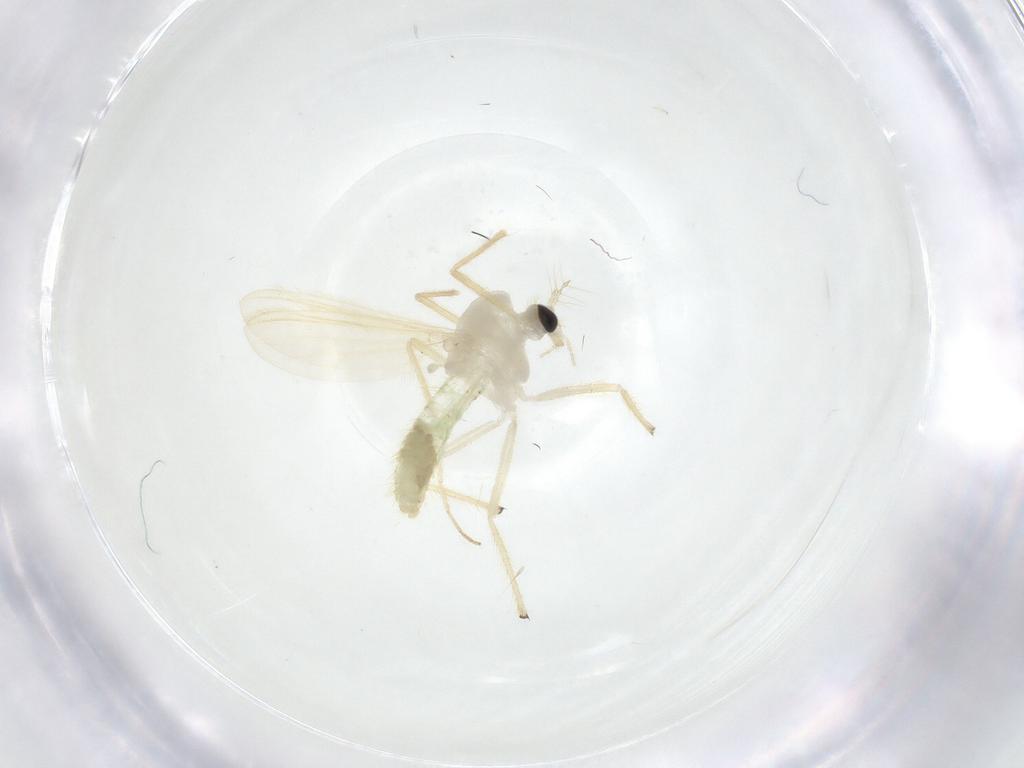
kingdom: Animalia
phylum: Arthropoda
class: Insecta
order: Diptera
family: Chironomidae
